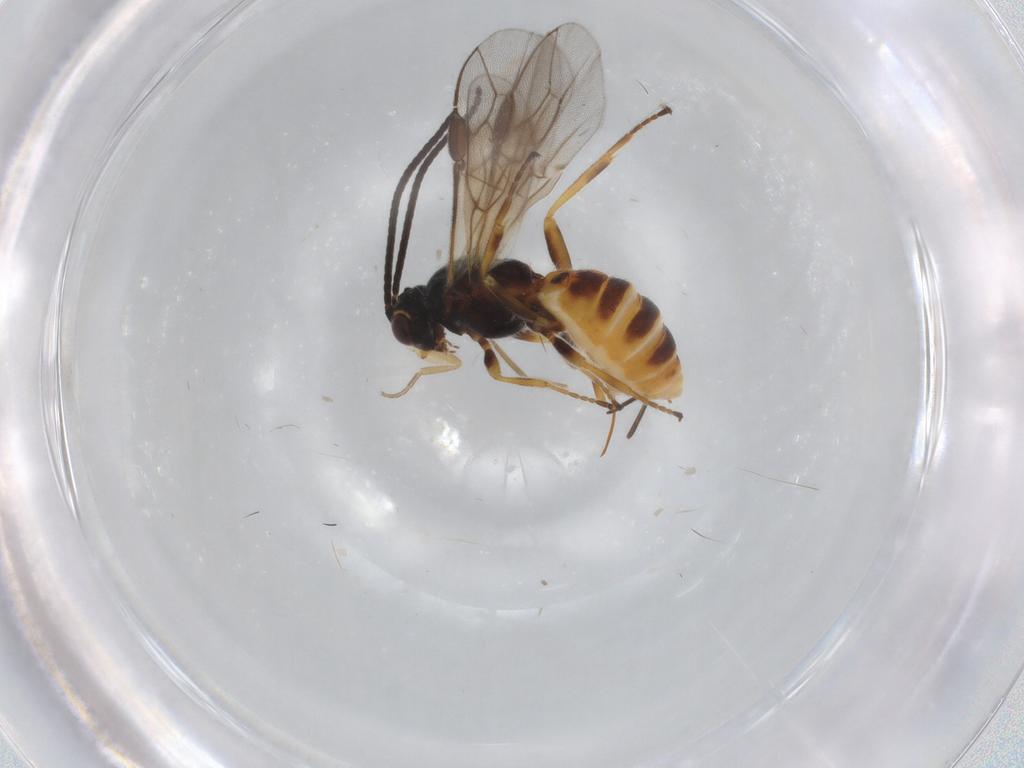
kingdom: Animalia
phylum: Arthropoda
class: Insecta
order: Hymenoptera
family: Braconidae
